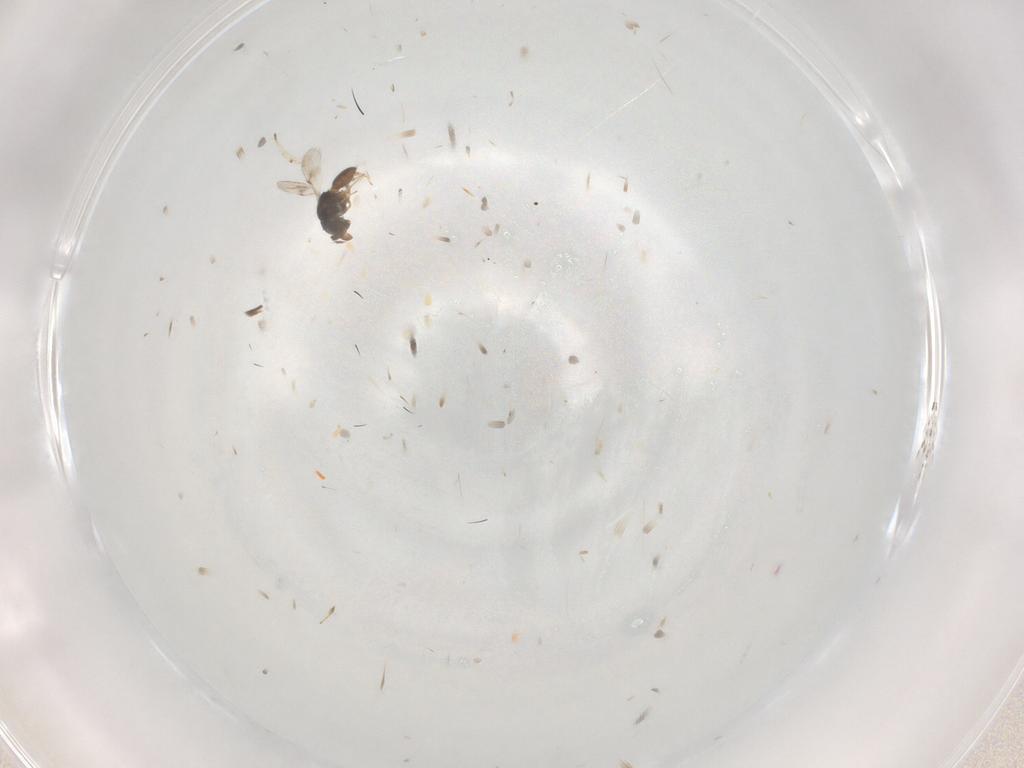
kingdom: Animalia
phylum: Arthropoda
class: Insecta
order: Hymenoptera
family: Scelionidae
